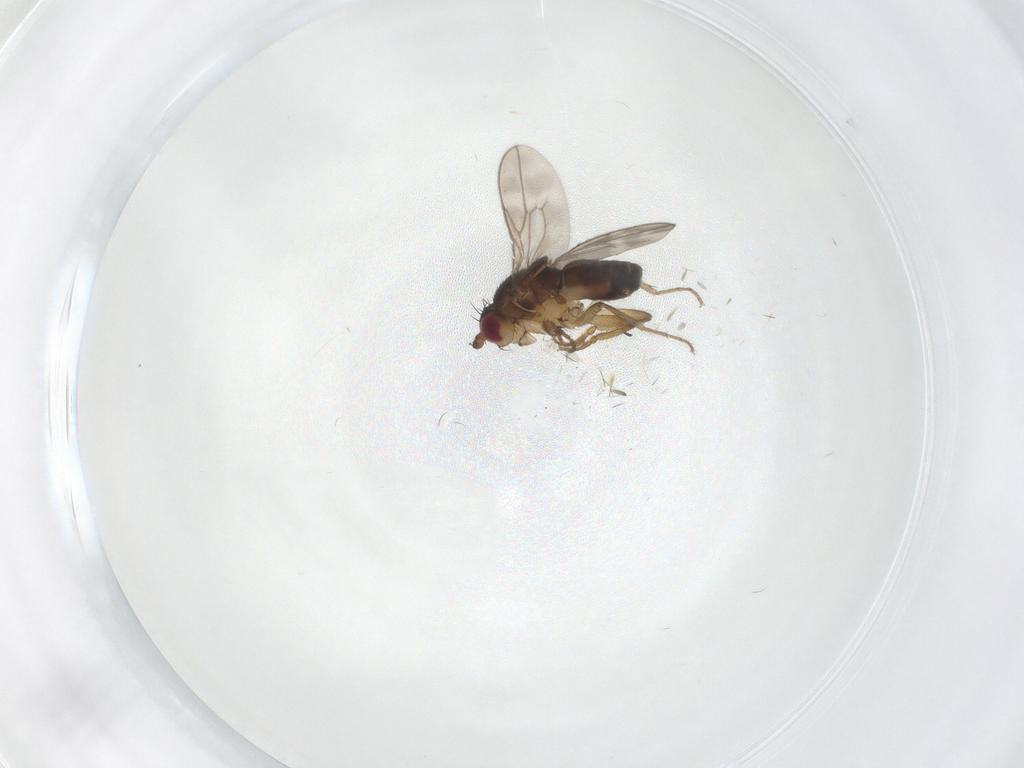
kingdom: Animalia
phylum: Arthropoda
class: Insecta
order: Diptera
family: Sphaeroceridae
